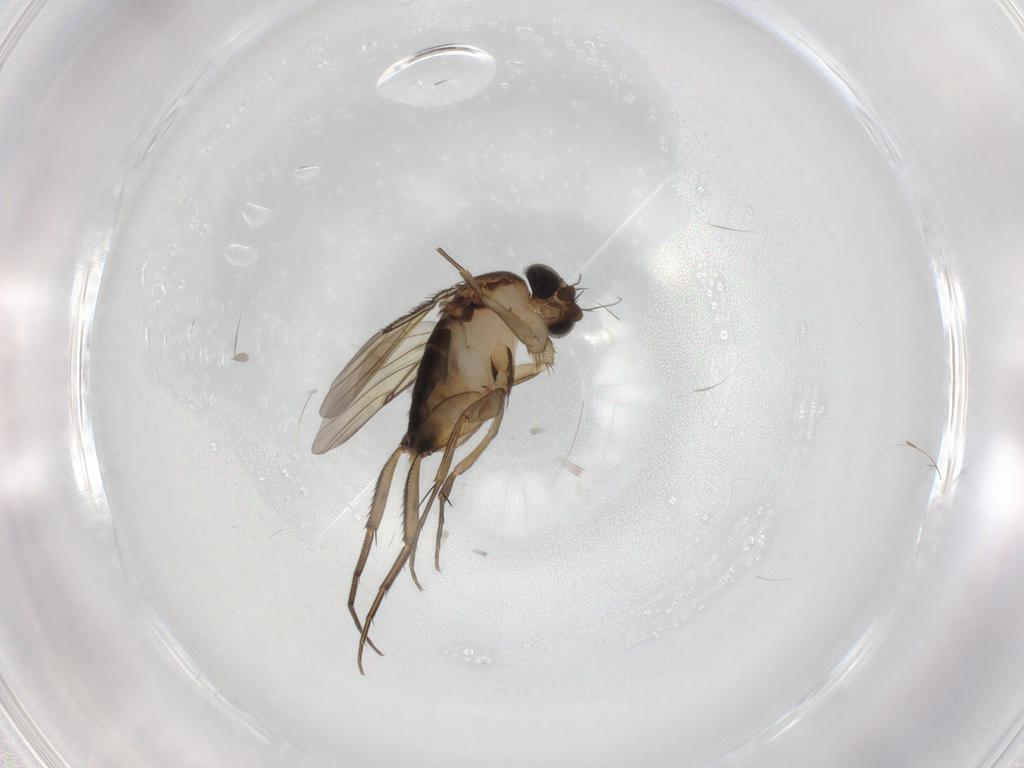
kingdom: Animalia
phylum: Arthropoda
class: Insecta
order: Diptera
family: Phoridae
